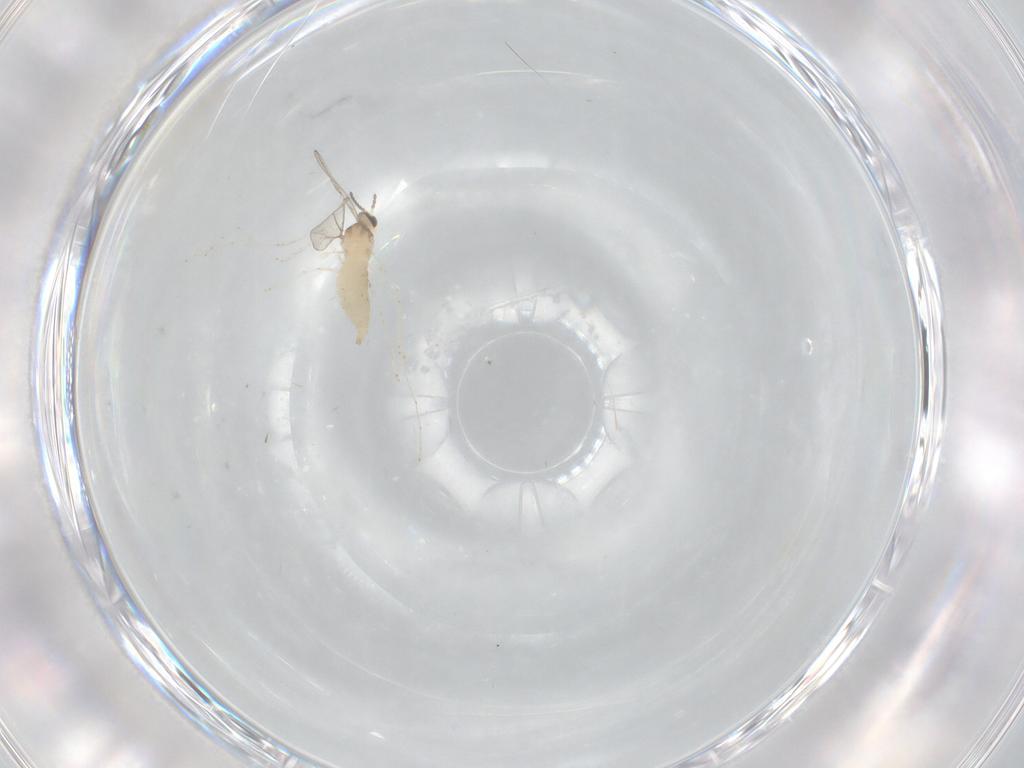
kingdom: Animalia
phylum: Arthropoda
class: Insecta
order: Diptera
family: Cecidomyiidae
